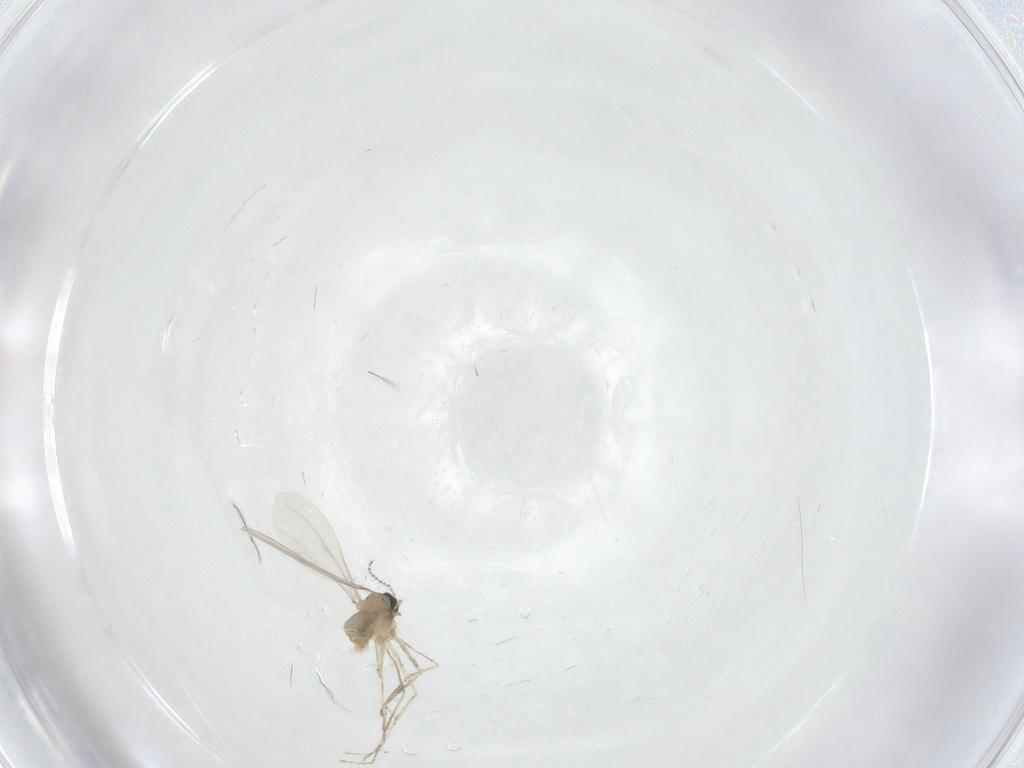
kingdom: Animalia
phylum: Arthropoda
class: Insecta
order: Diptera
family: Cecidomyiidae
